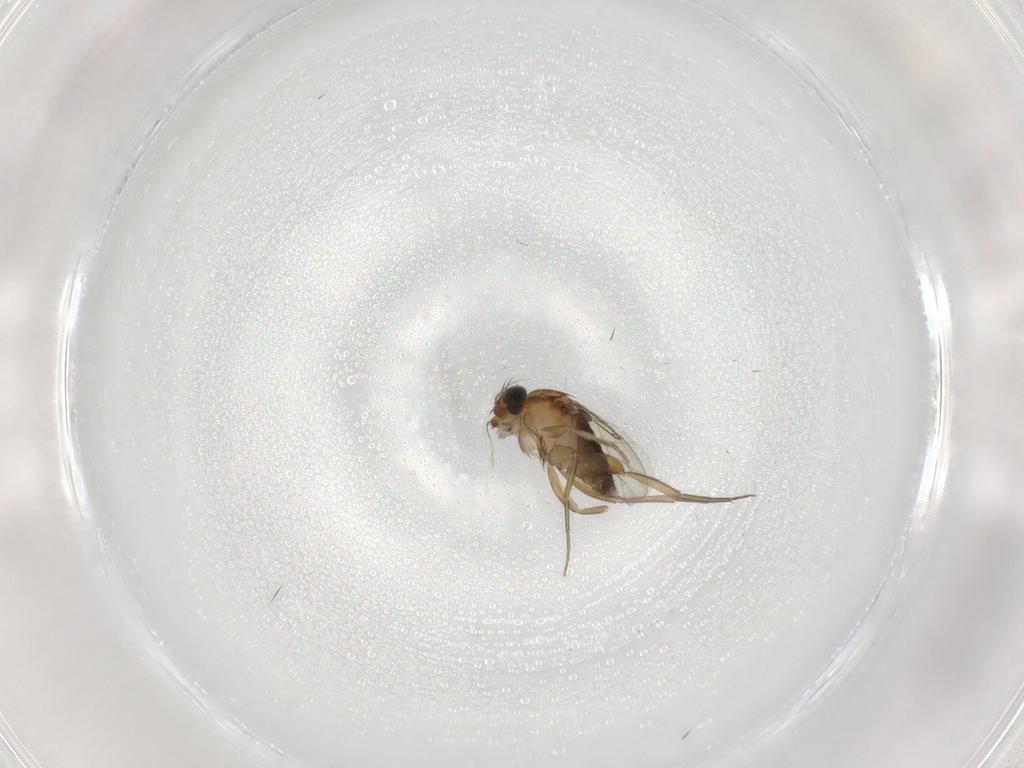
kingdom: Animalia
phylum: Arthropoda
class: Insecta
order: Diptera
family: Phoridae
